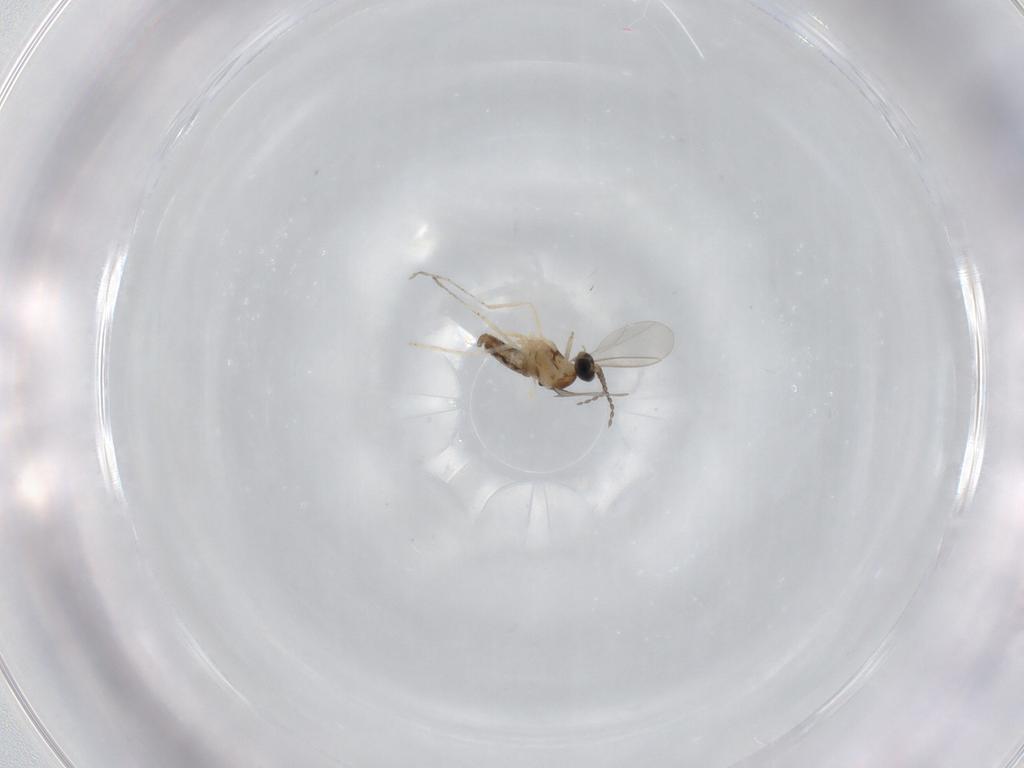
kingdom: Animalia
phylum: Arthropoda
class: Insecta
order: Diptera
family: Cecidomyiidae
